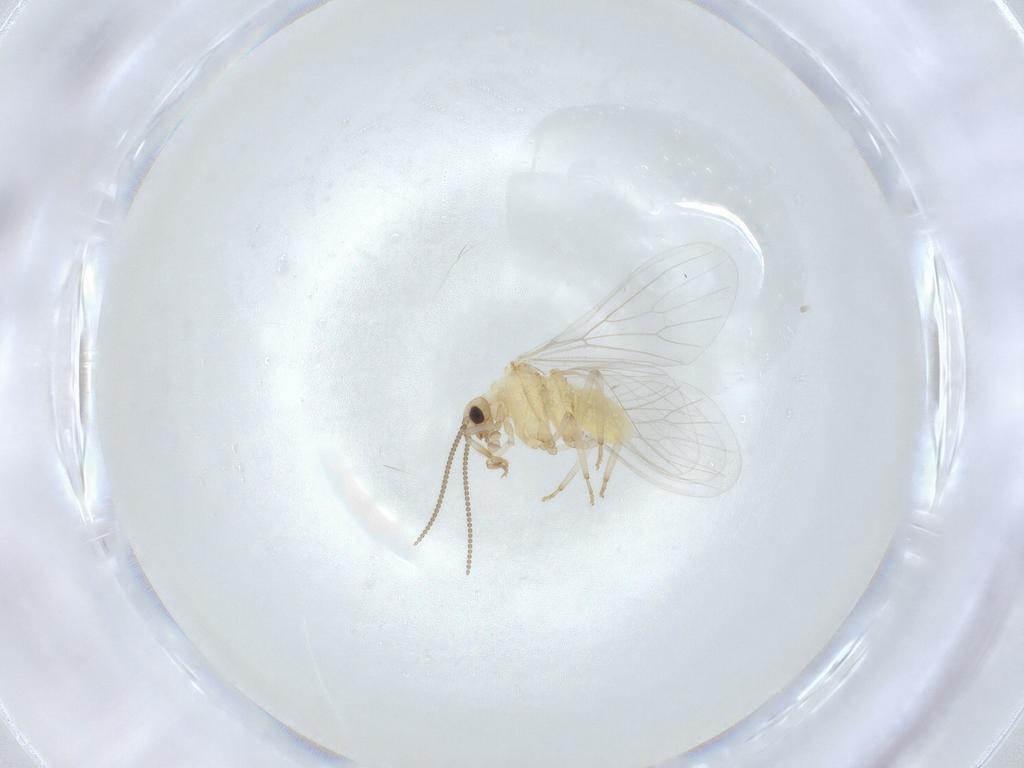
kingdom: Animalia
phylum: Arthropoda
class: Insecta
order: Neuroptera
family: Coniopterygidae
